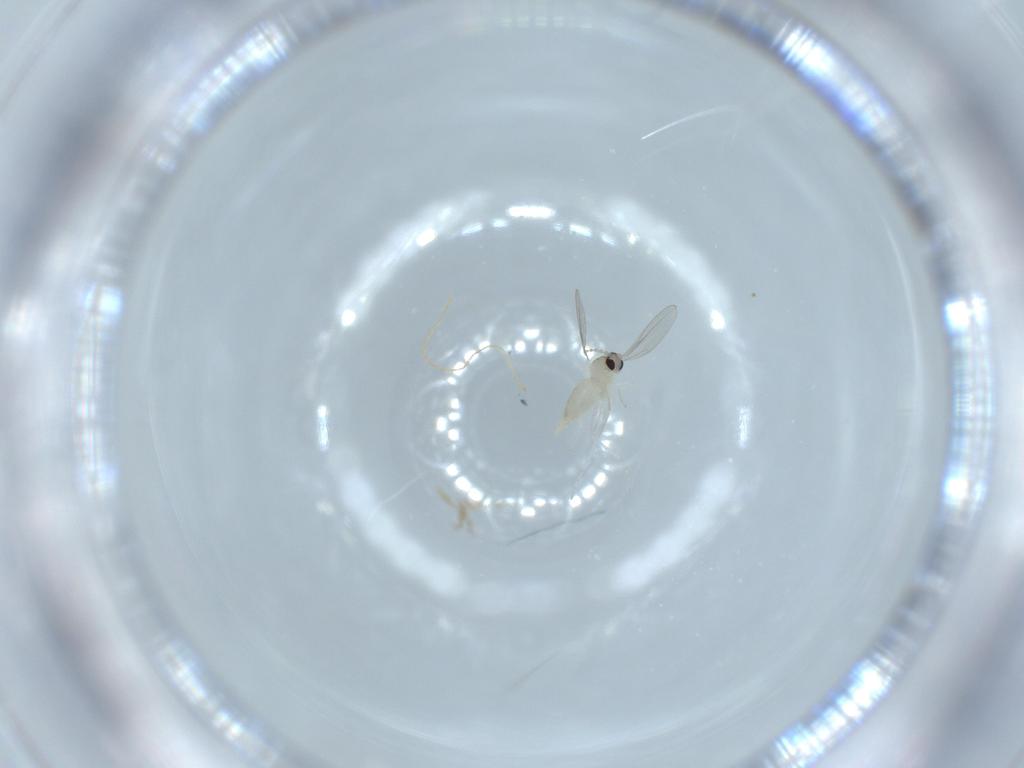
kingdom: Animalia
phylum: Arthropoda
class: Insecta
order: Diptera
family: Cecidomyiidae
